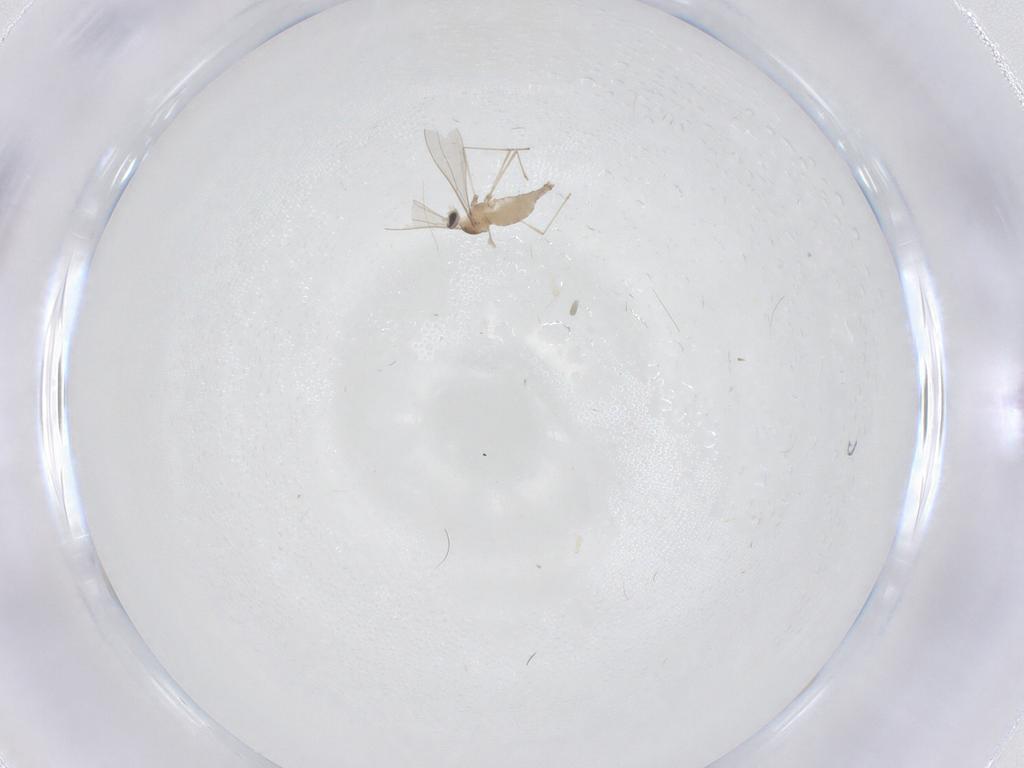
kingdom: Animalia
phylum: Arthropoda
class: Insecta
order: Diptera
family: Cecidomyiidae
